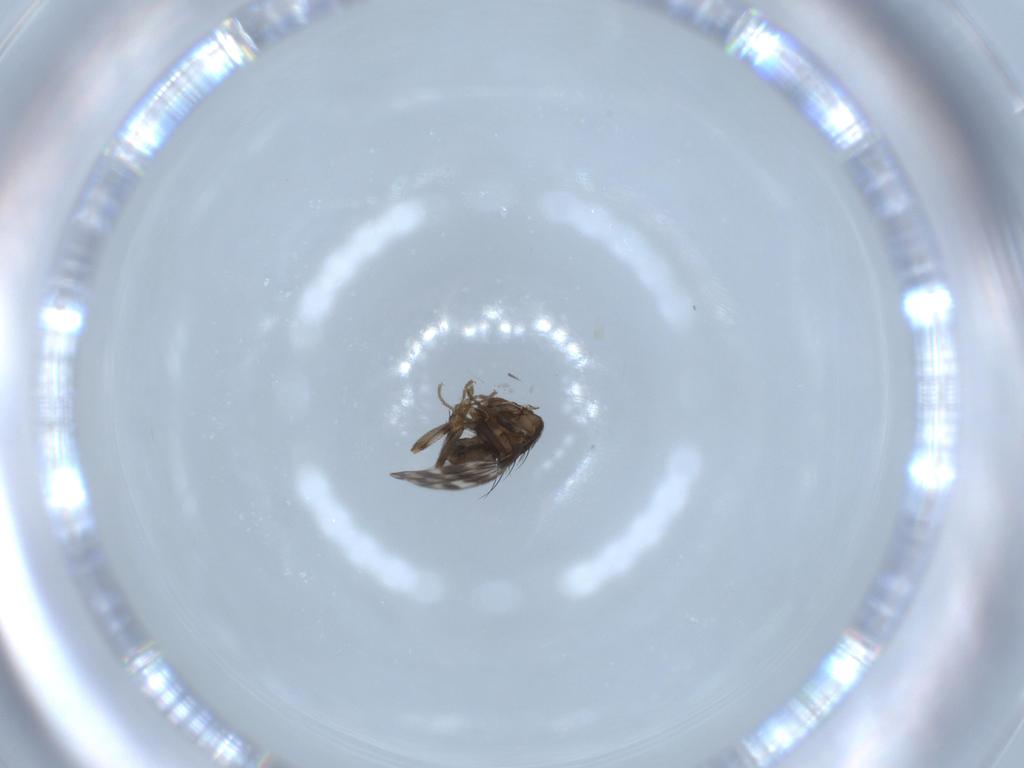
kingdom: Animalia
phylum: Arthropoda
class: Insecta
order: Diptera
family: Sphaeroceridae
